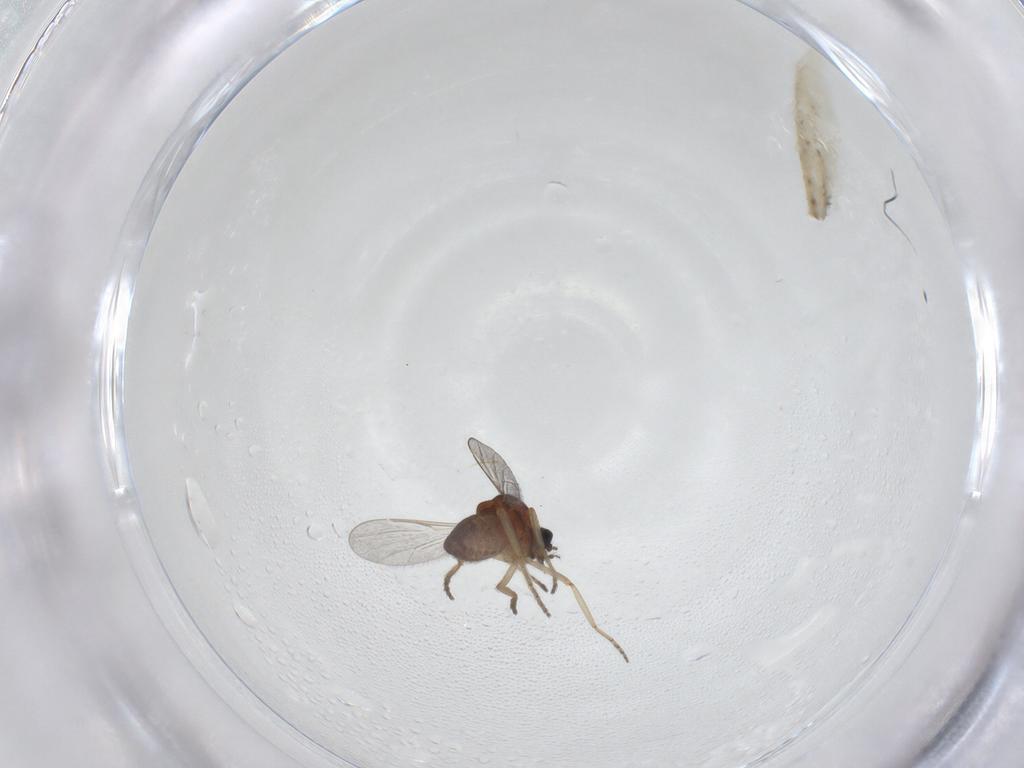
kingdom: Animalia
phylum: Arthropoda
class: Insecta
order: Diptera
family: Ceratopogonidae
